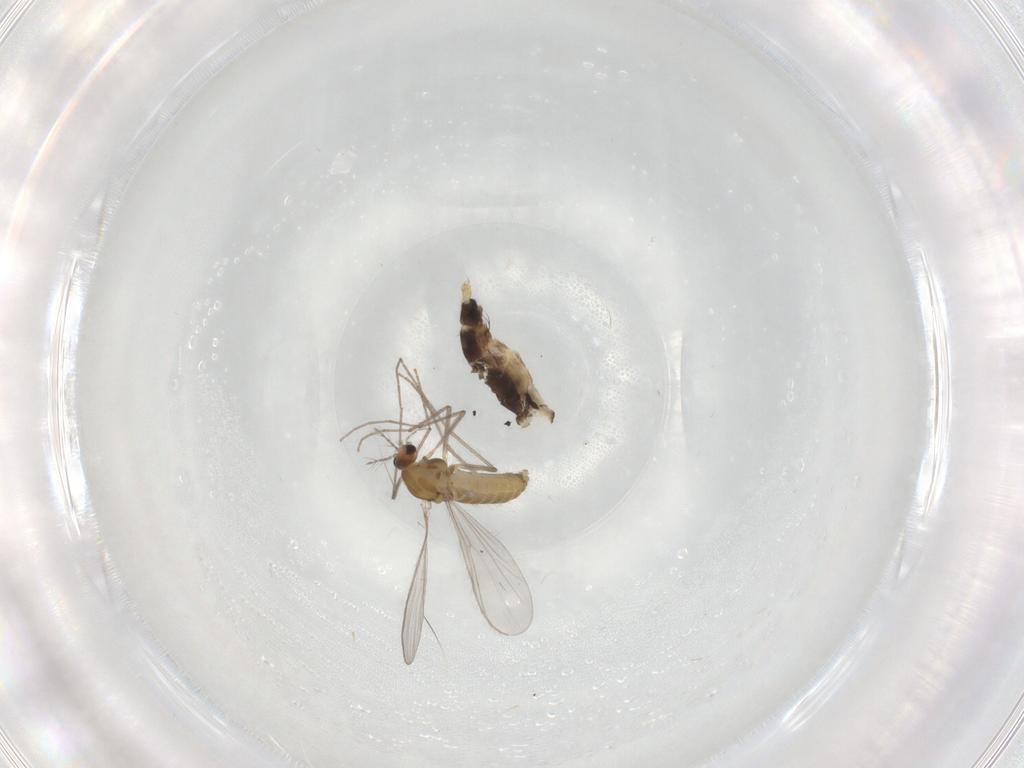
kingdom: Animalia
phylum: Arthropoda
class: Insecta
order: Diptera
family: Chironomidae
